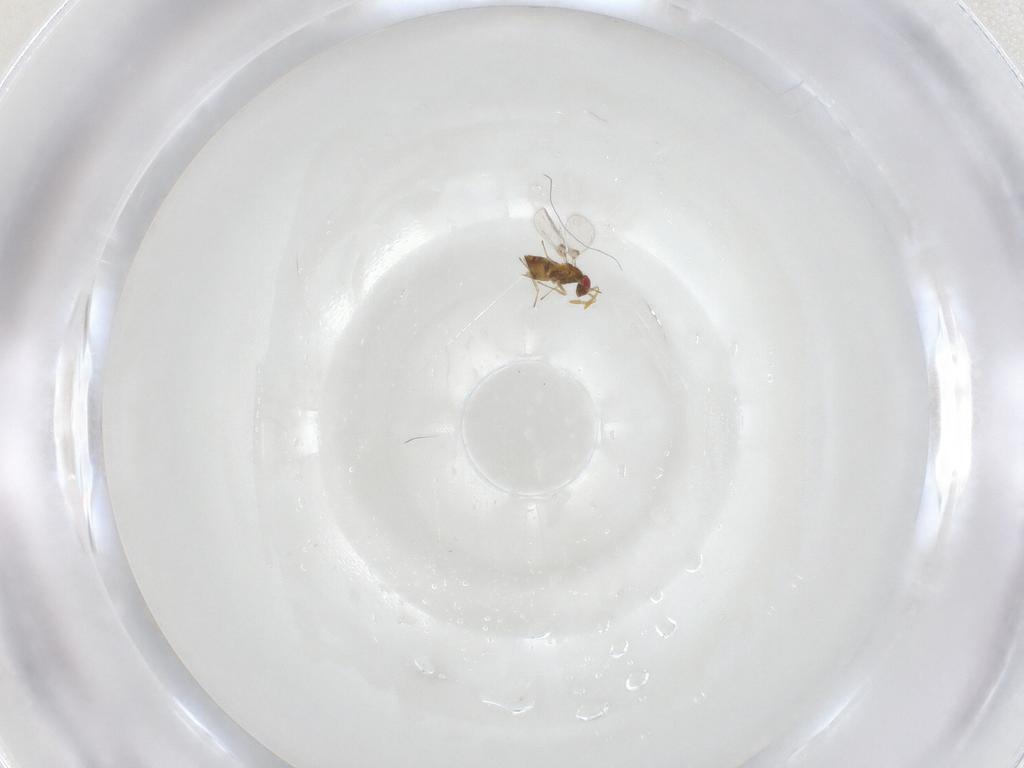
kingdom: Animalia
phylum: Arthropoda
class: Insecta
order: Hymenoptera
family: Trichogrammatidae
